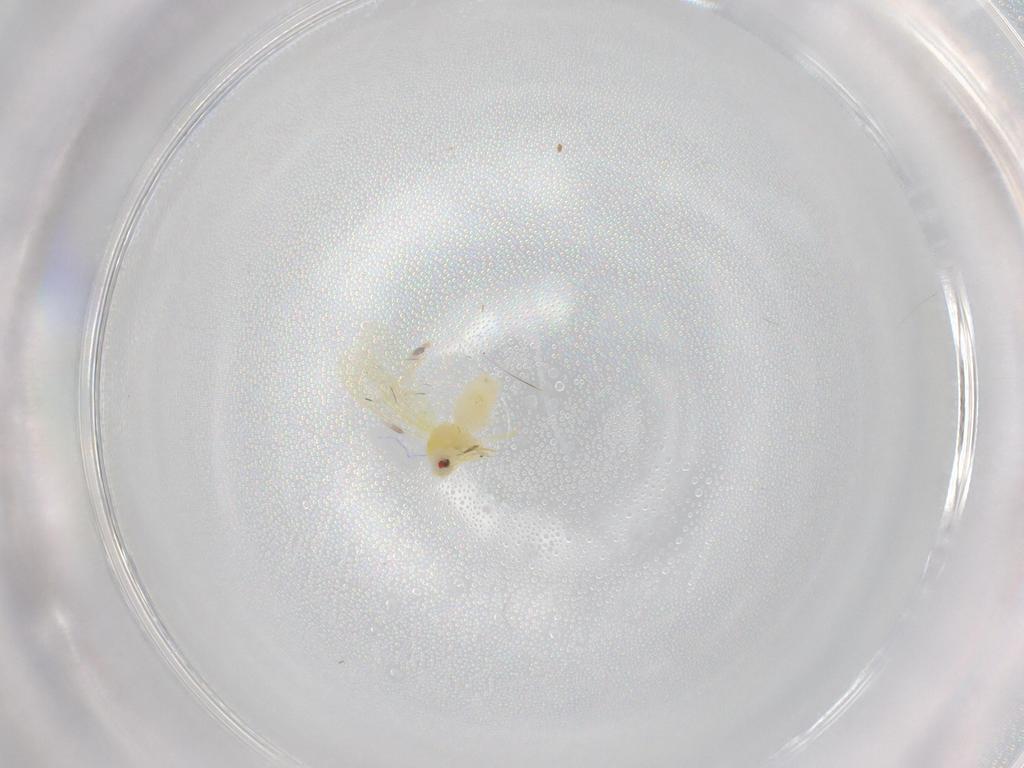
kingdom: Animalia
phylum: Arthropoda
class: Insecta
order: Hemiptera
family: Aleyrodidae
